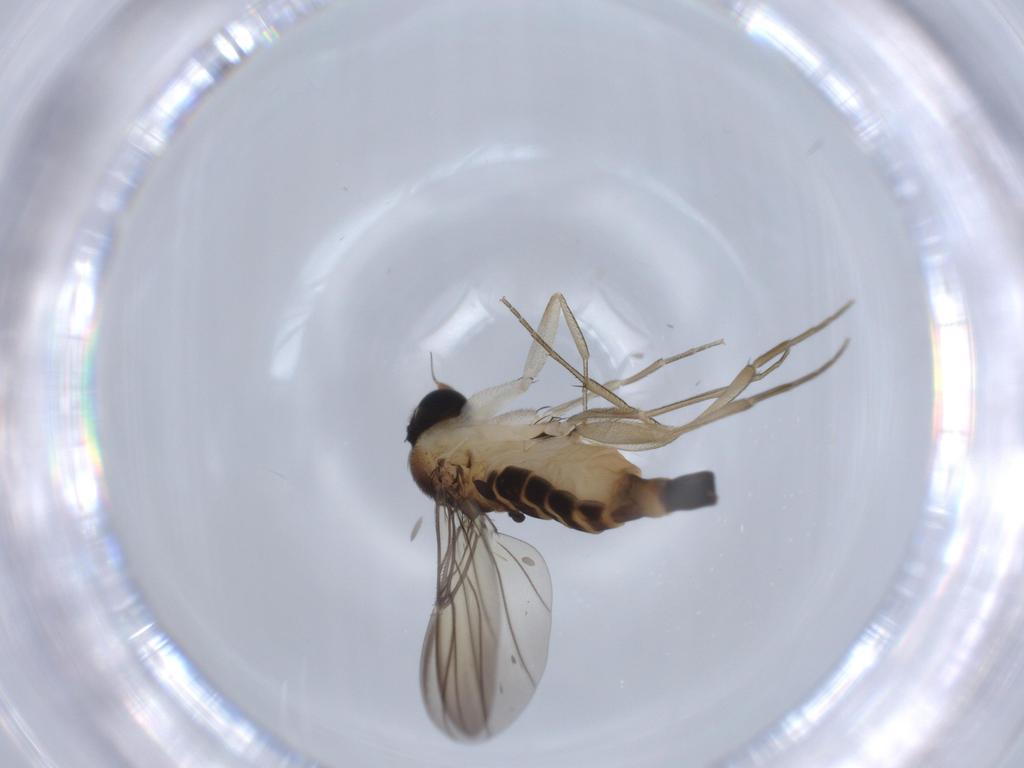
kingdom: Animalia
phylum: Arthropoda
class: Insecta
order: Diptera
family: Phoridae
